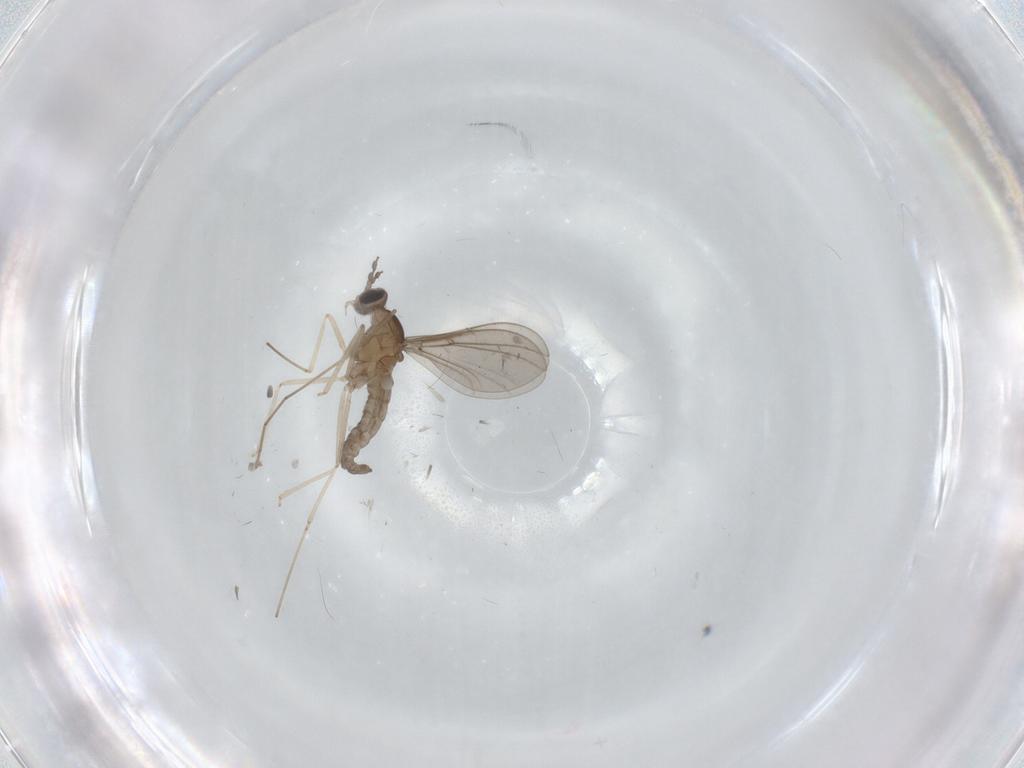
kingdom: Animalia
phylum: Arthropoda
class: Insecta
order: Diptera
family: Cecidomyiidae
